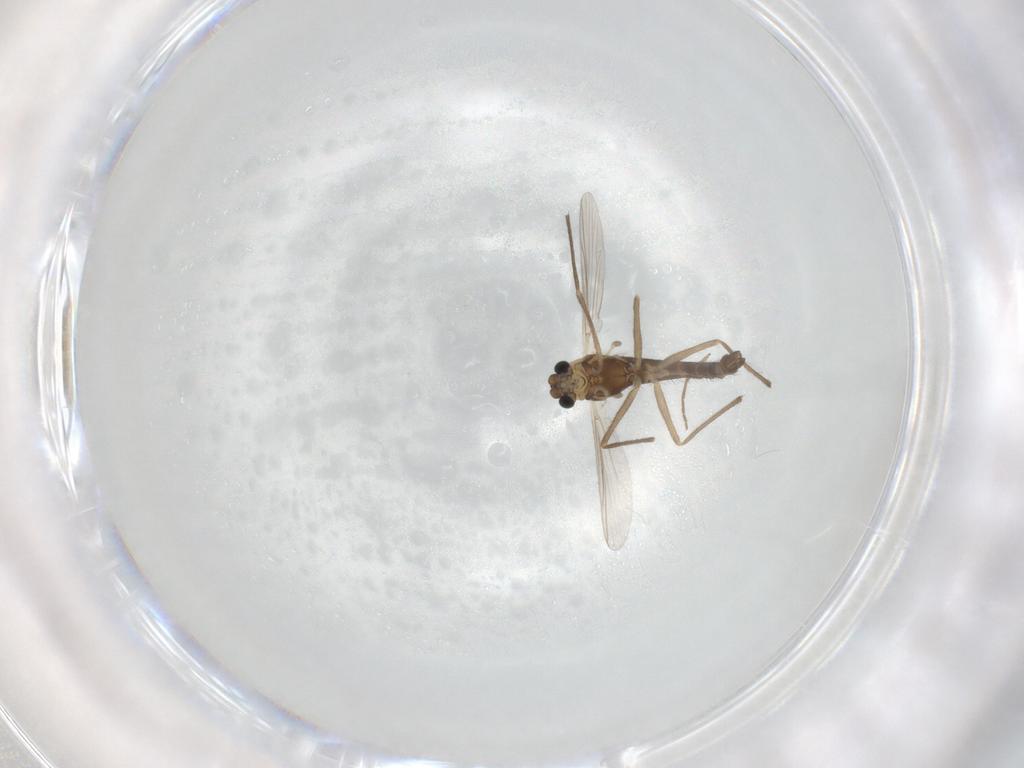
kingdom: Animalia
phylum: Arthropoda
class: Insecta
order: Diptera
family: Chironomidae
